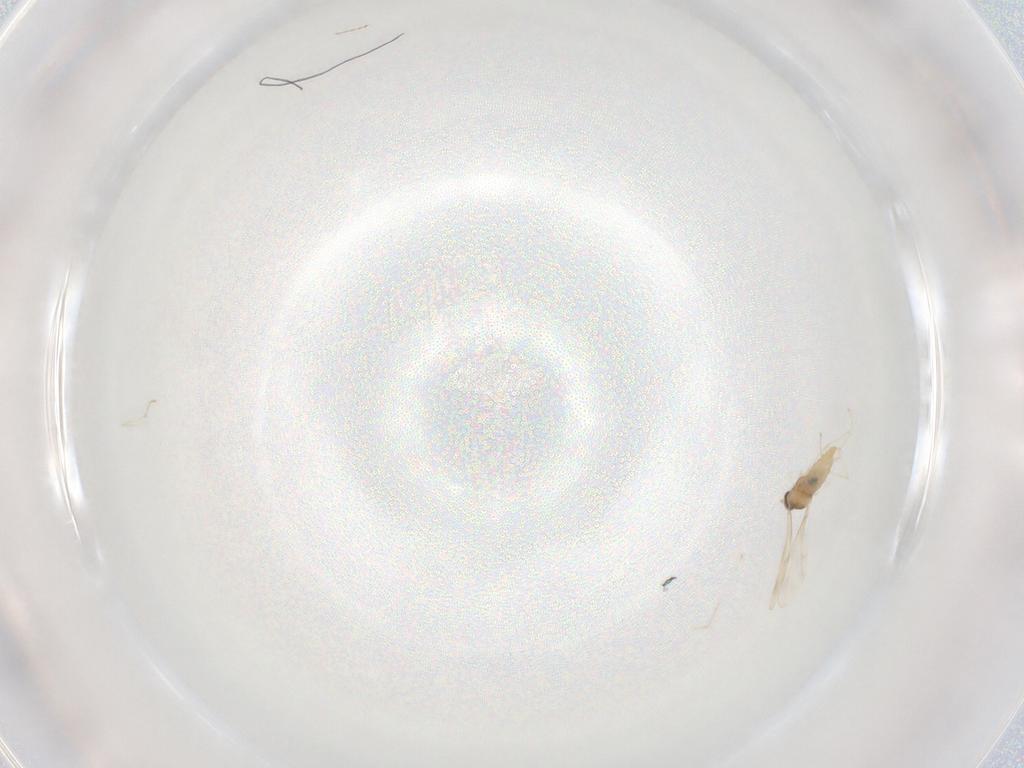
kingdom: Animalia
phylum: Arthropoda
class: Insecta
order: Diptera
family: Cecidomyiidae
